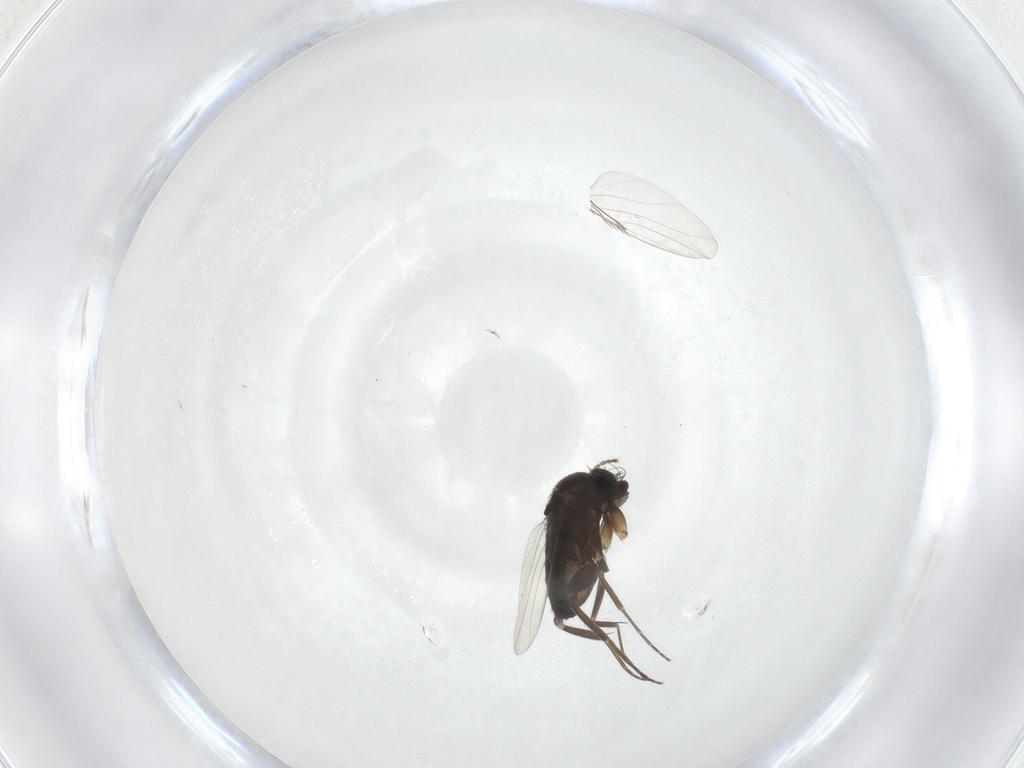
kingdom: Animalia
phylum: Arthropoda
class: Insecta
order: Diptera
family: Phoridae
